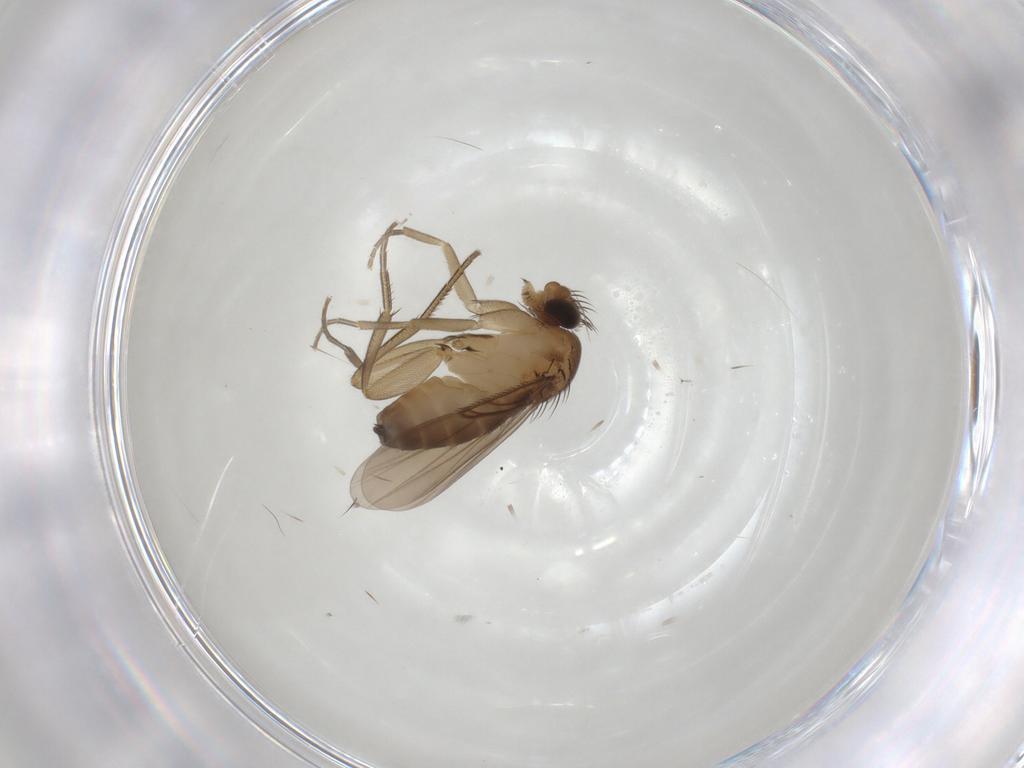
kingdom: Animalia
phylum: Arthropoda
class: Insecta
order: Diptera
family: Phoridae
